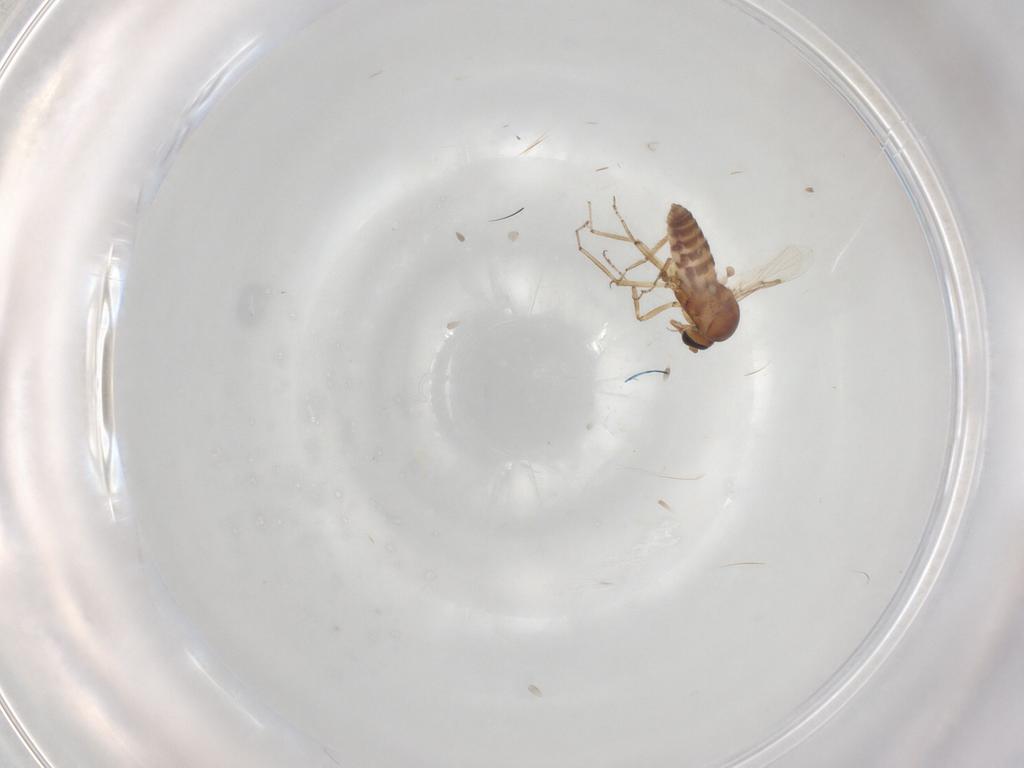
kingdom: Animalia
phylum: Arthropoda
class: Insecta
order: Diptera
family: Ceratopogonidae
